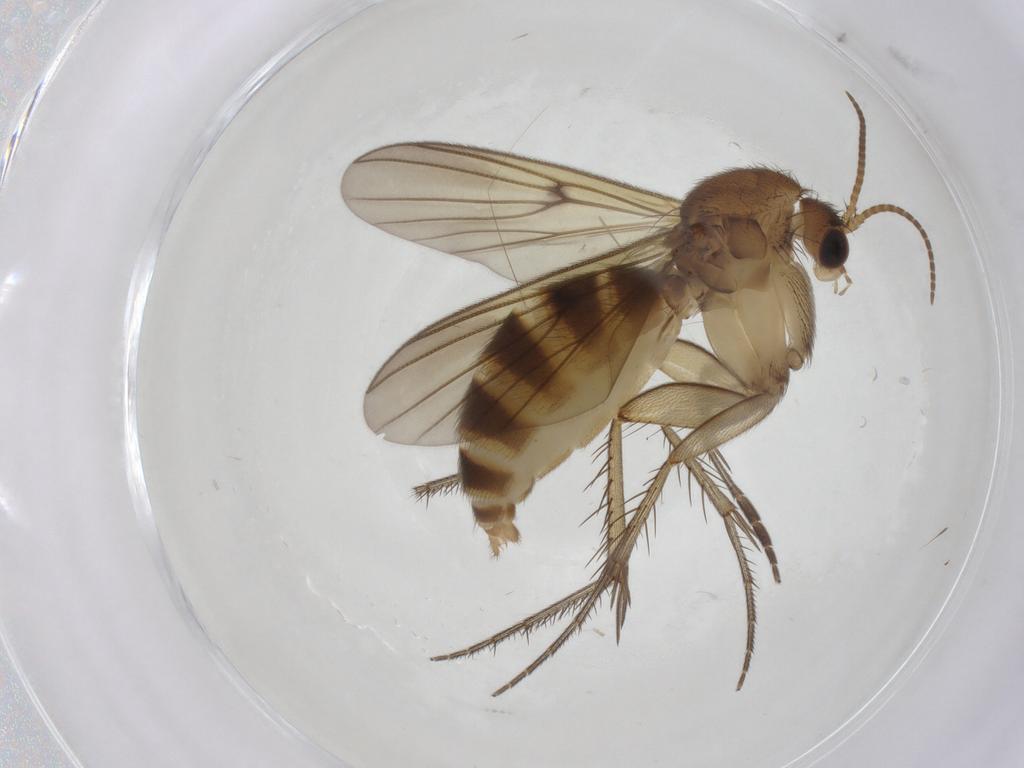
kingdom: Animalia
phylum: Arthropoda
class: Insecta
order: Diptera
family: Mycetophilidae
